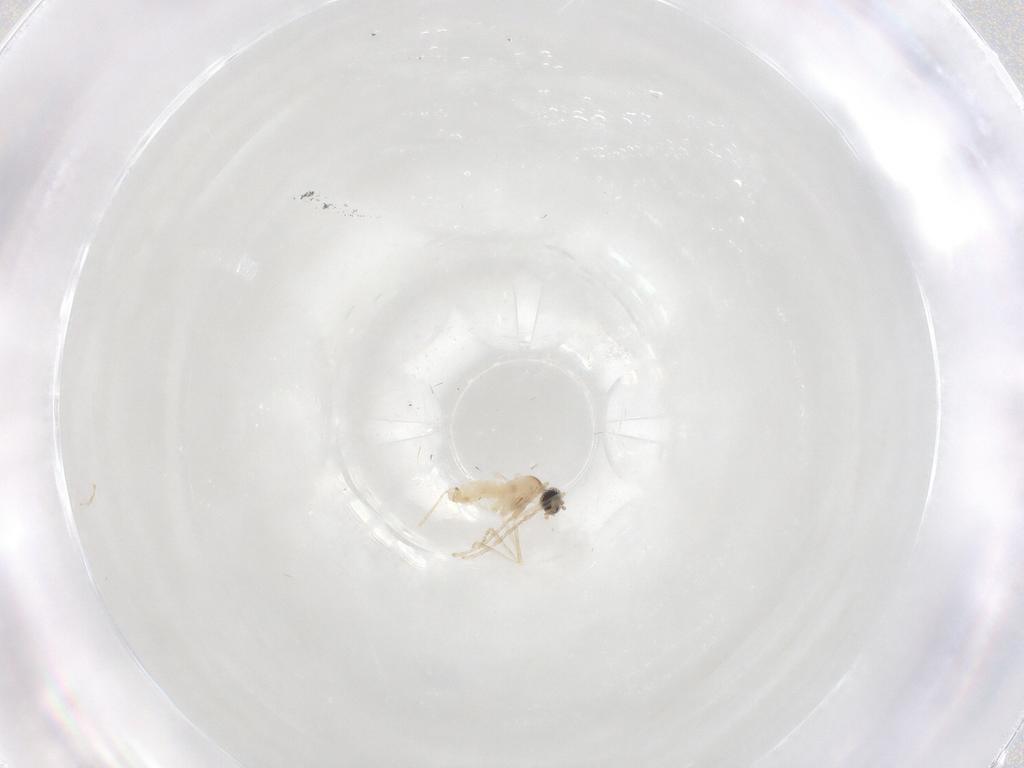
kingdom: Animalia
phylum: Arthropoda
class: Insecta
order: Diptera
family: Cecidomyiidae
